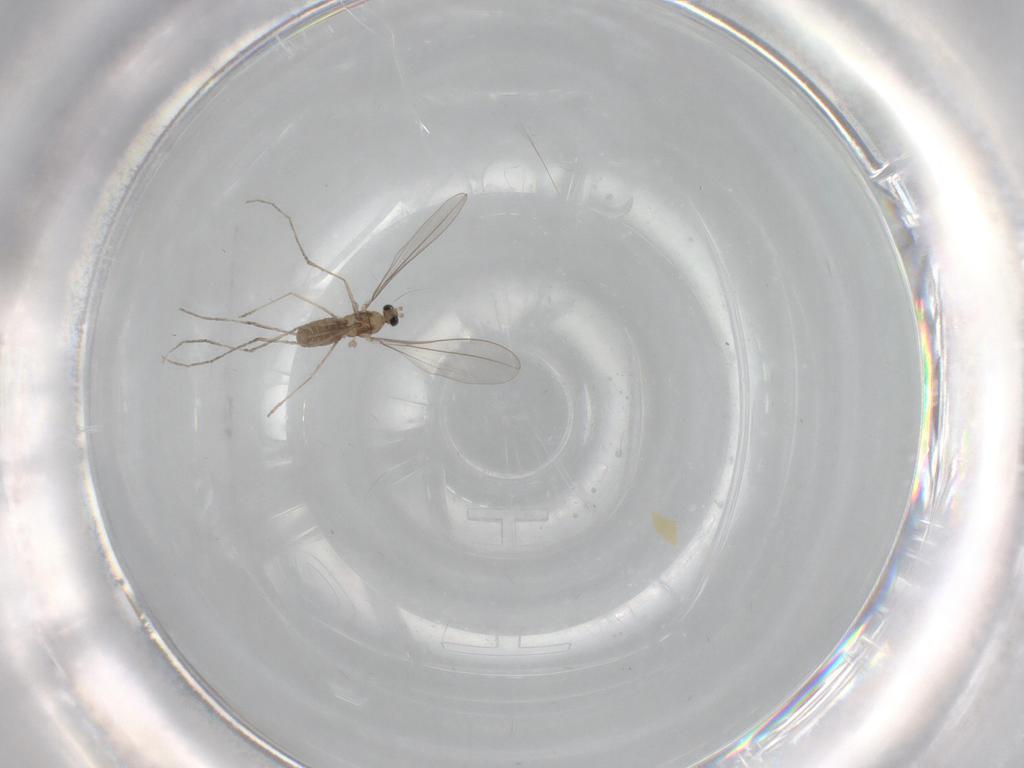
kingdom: Animalia
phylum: Arthropoda
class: Insecta
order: Diptera
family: Cecidomyiidae
